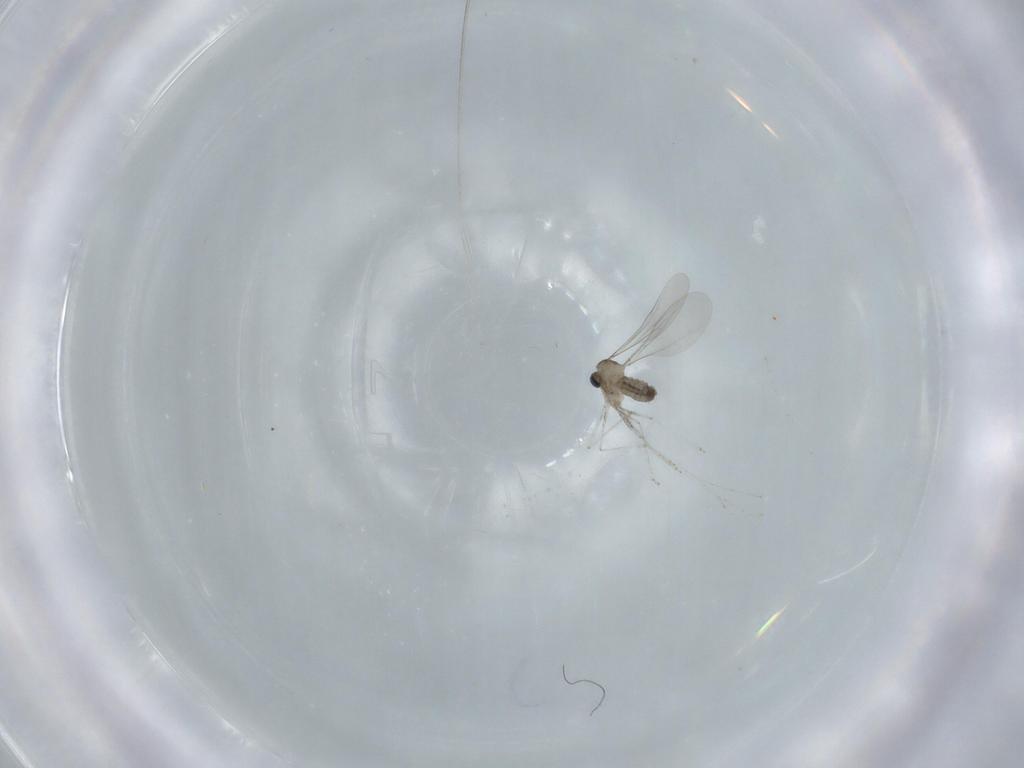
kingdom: Animalia
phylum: Arthropoda
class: Insecta
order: Diptera
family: Cecidomyiidae
